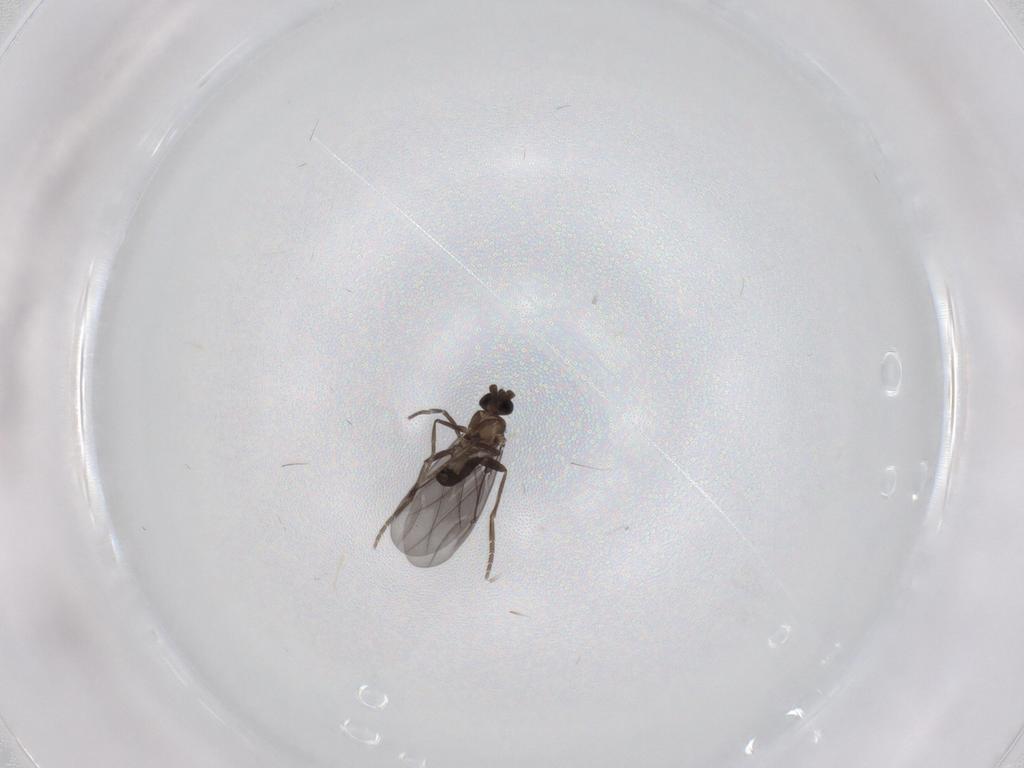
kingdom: Animalia
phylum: Arthropoda
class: Insecta
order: Diptera
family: Phoridae
